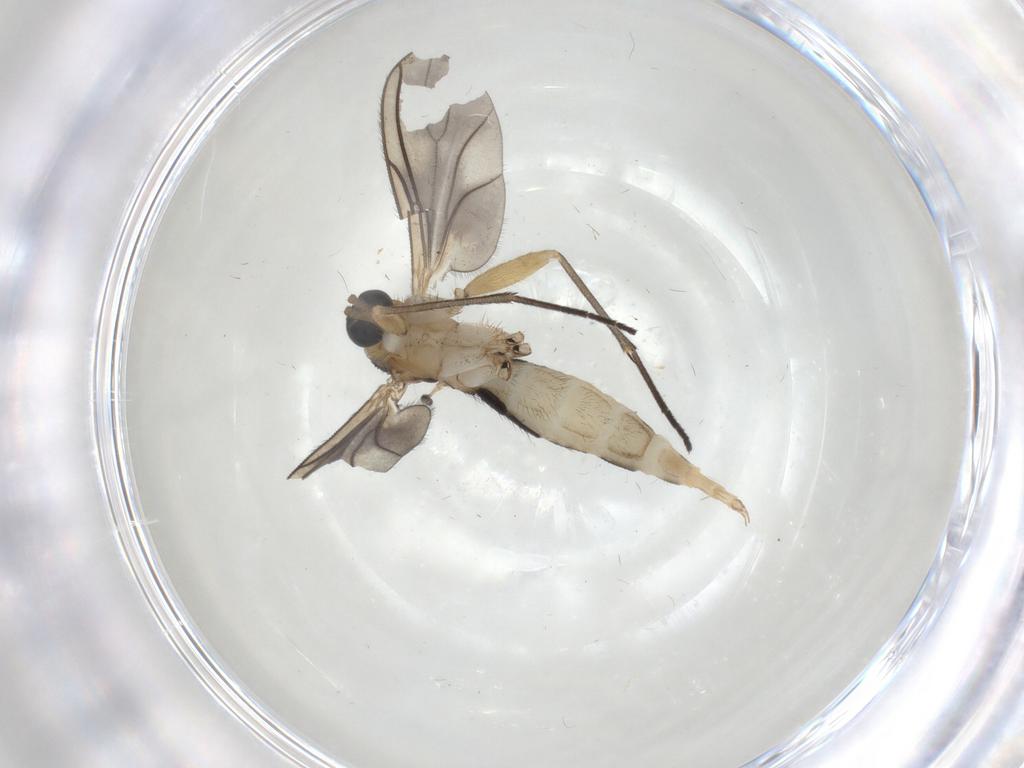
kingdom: Animalia
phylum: Arthropoda
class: Insecta
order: Diptera
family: Sciaridae
